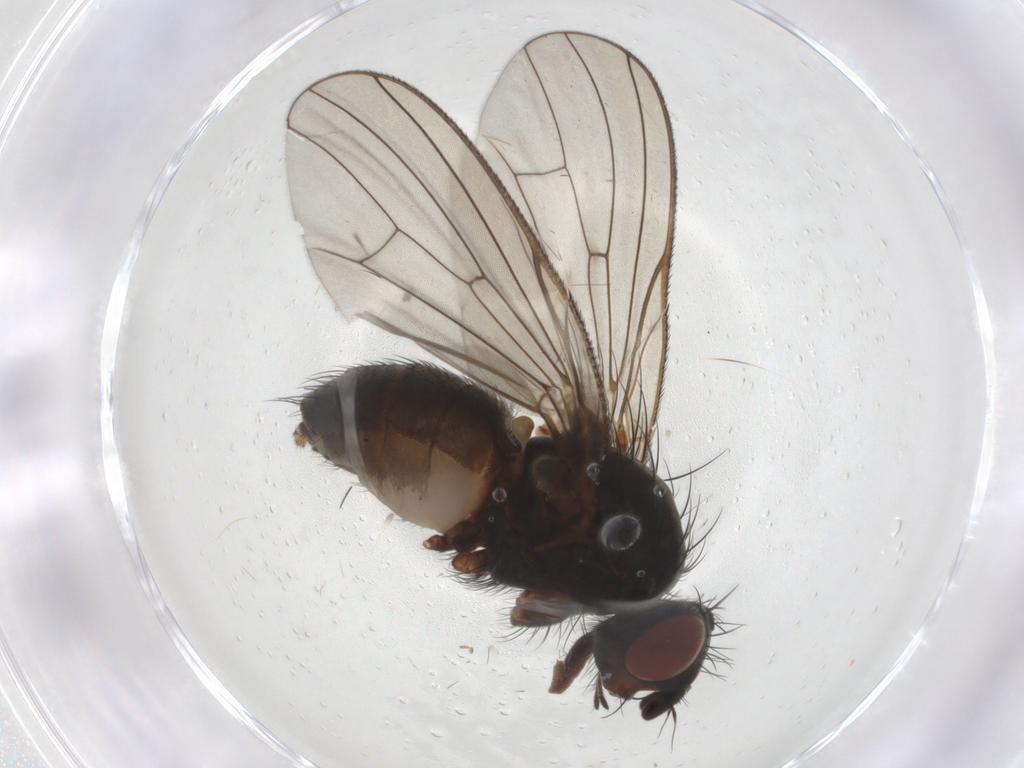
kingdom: Animalia
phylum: Arthropoda
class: Insecta
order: Diptera
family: Anthomyiidae
